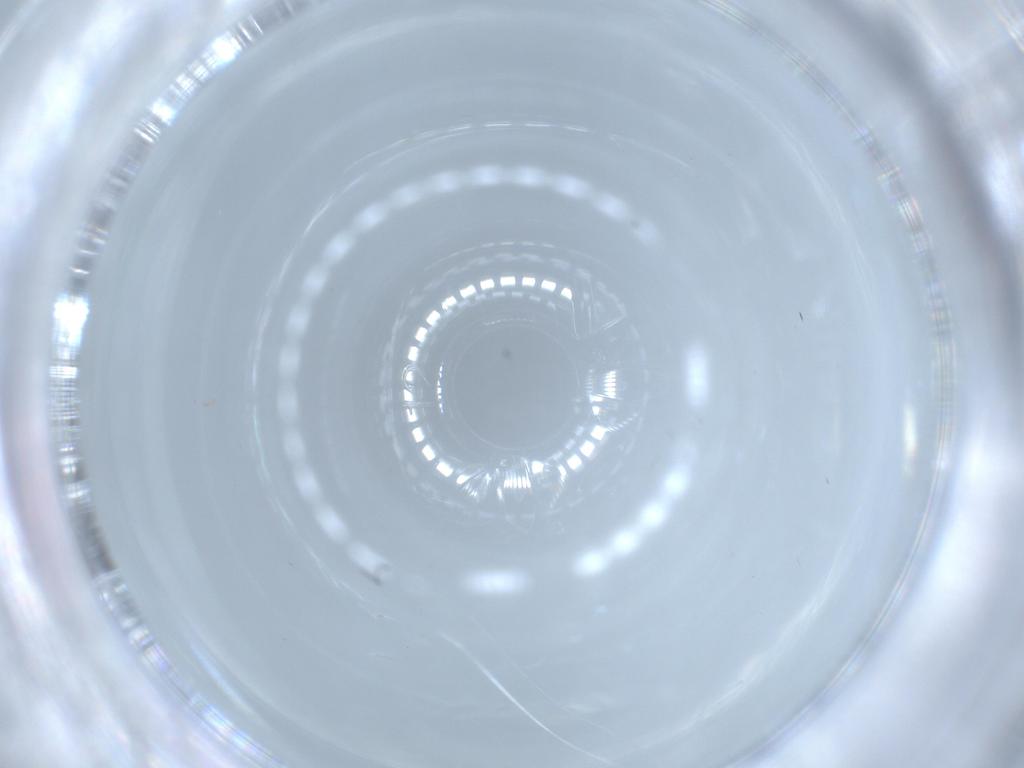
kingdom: Animalia
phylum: Arthropoda
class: Insecta
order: Diptera
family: Cecidomyiidae
